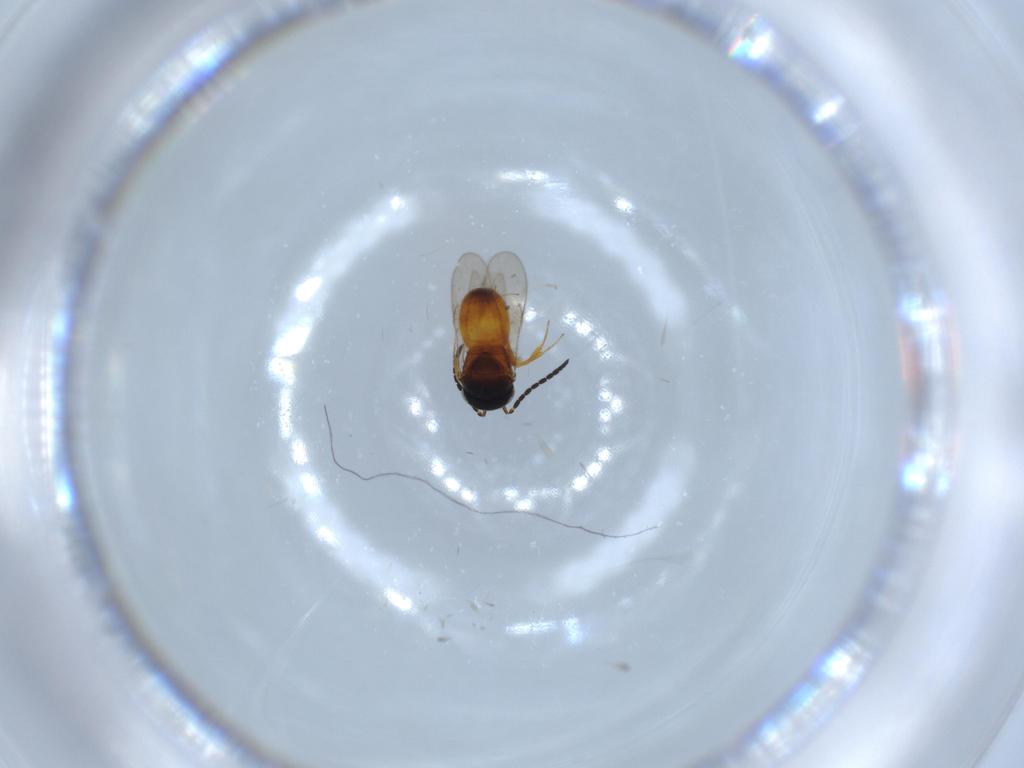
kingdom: Animalia
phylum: Arthropoda
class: Insecta
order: Hymenoptera
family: Scelionidae
